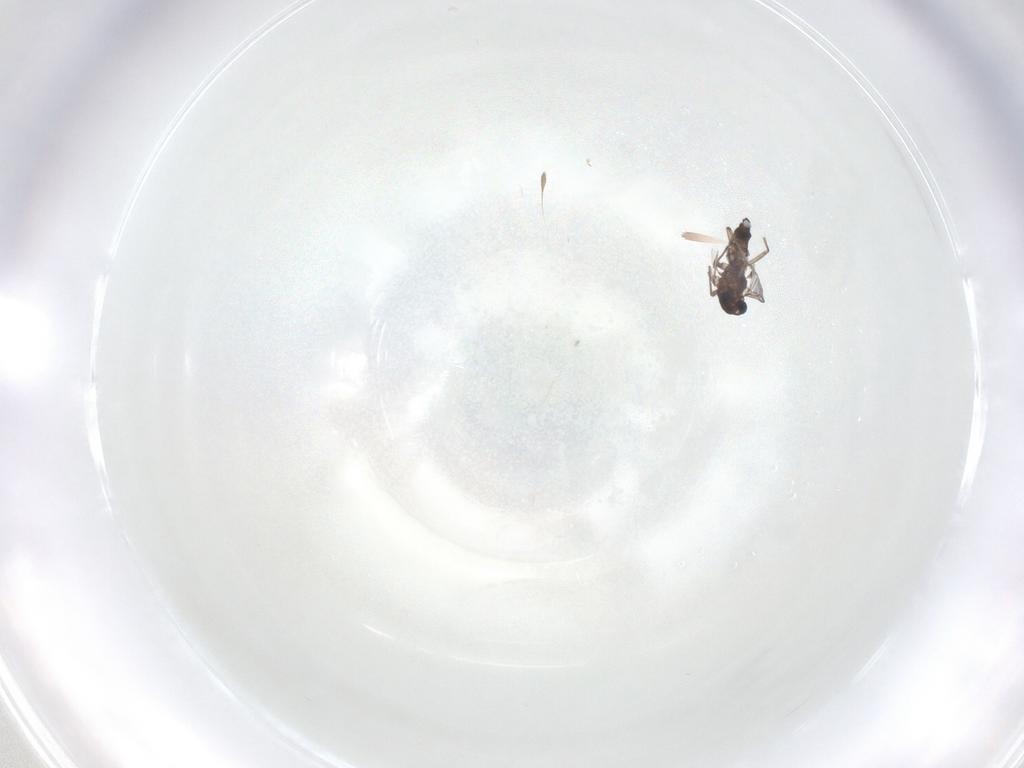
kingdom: Animalia
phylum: Arthropoda
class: Insecta
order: Diptera
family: Chironomidae
